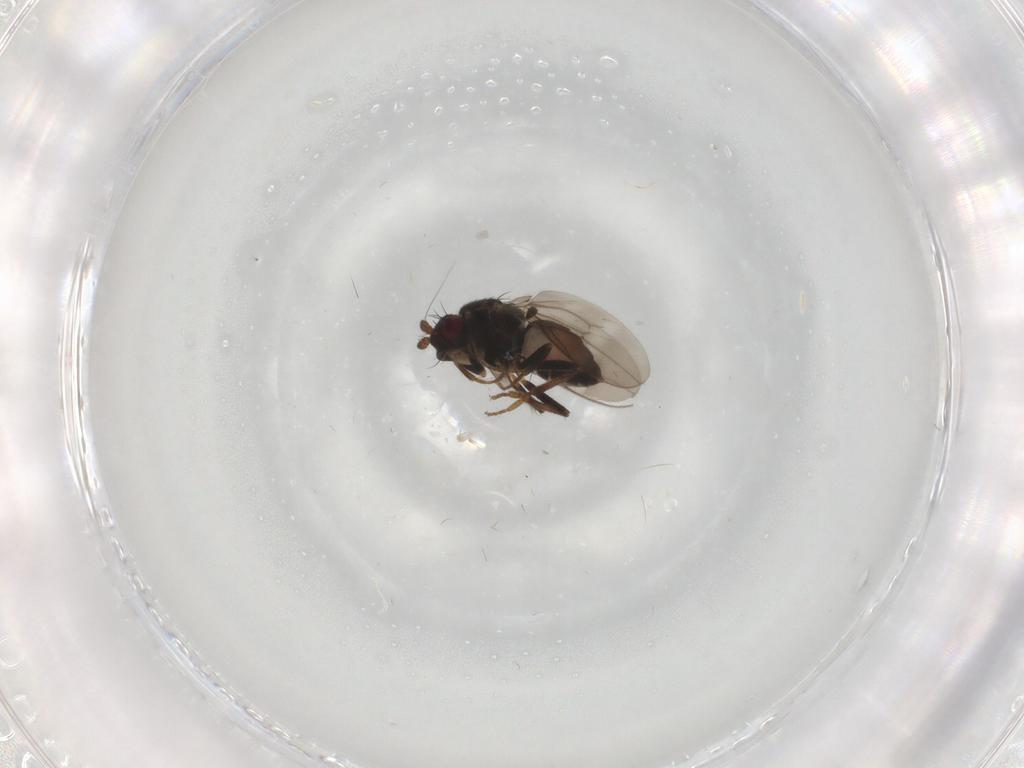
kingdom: Animalia
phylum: Arthropoda
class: Insecta
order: Diptera
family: Sphaeroceridae
